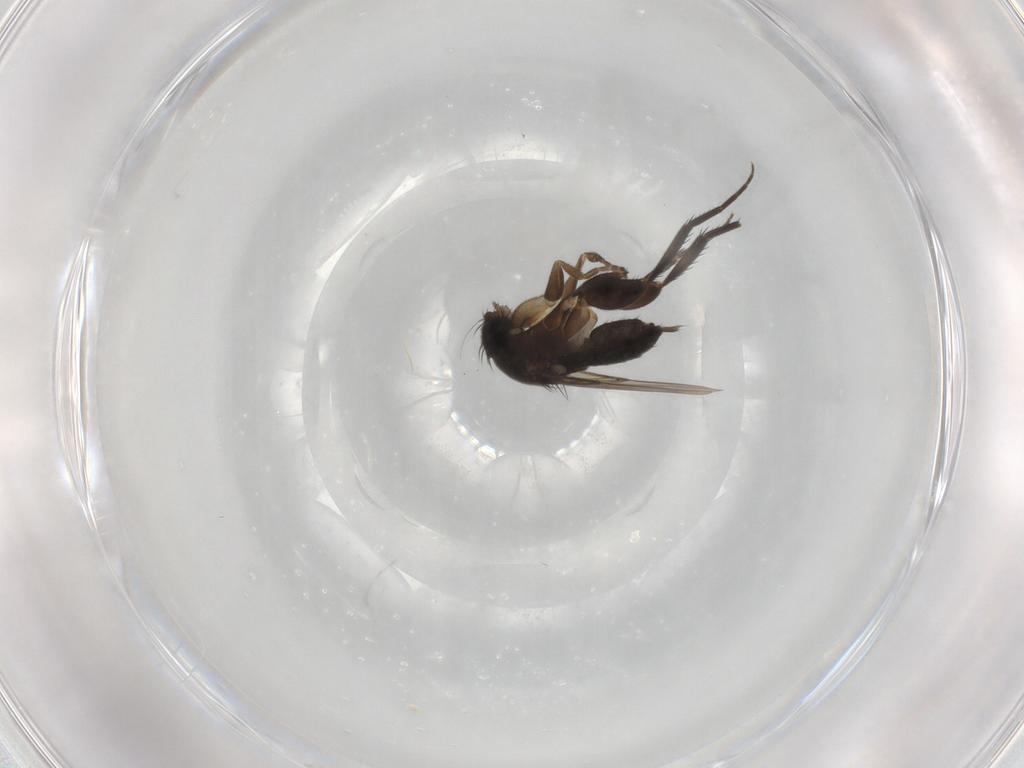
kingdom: Animalia
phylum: Arthropoda
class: Insecta
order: Diptera
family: Phoridae
